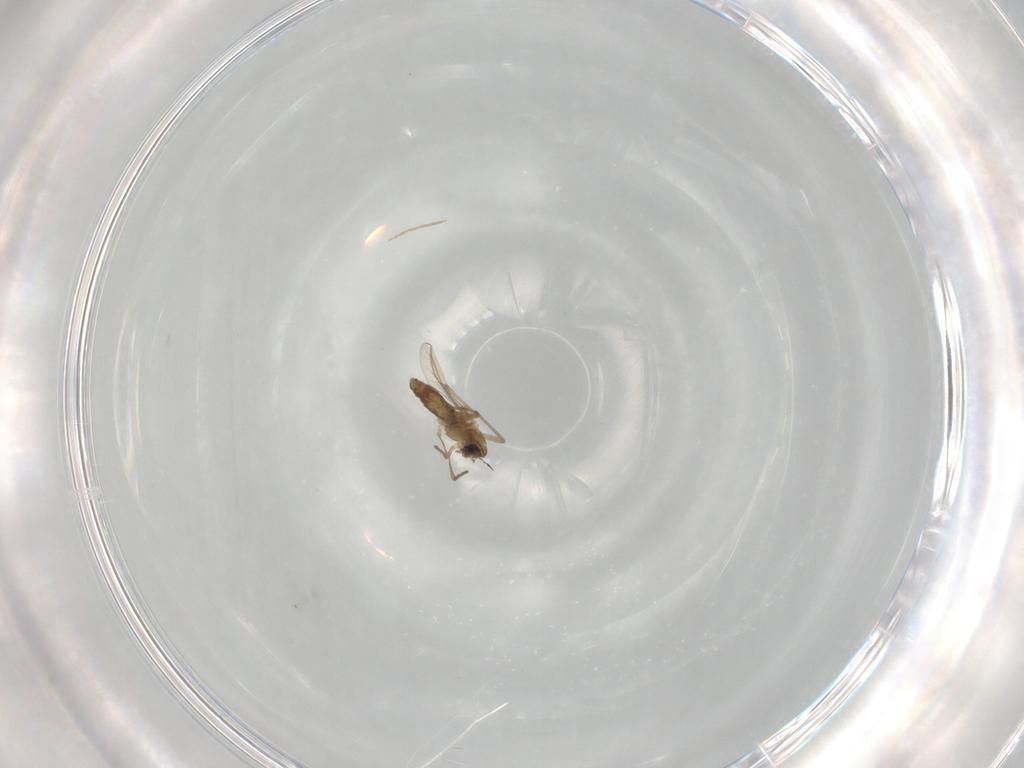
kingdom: Animalia
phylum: Arthropoda
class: Insecta
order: Diptera
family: Chironomidae
